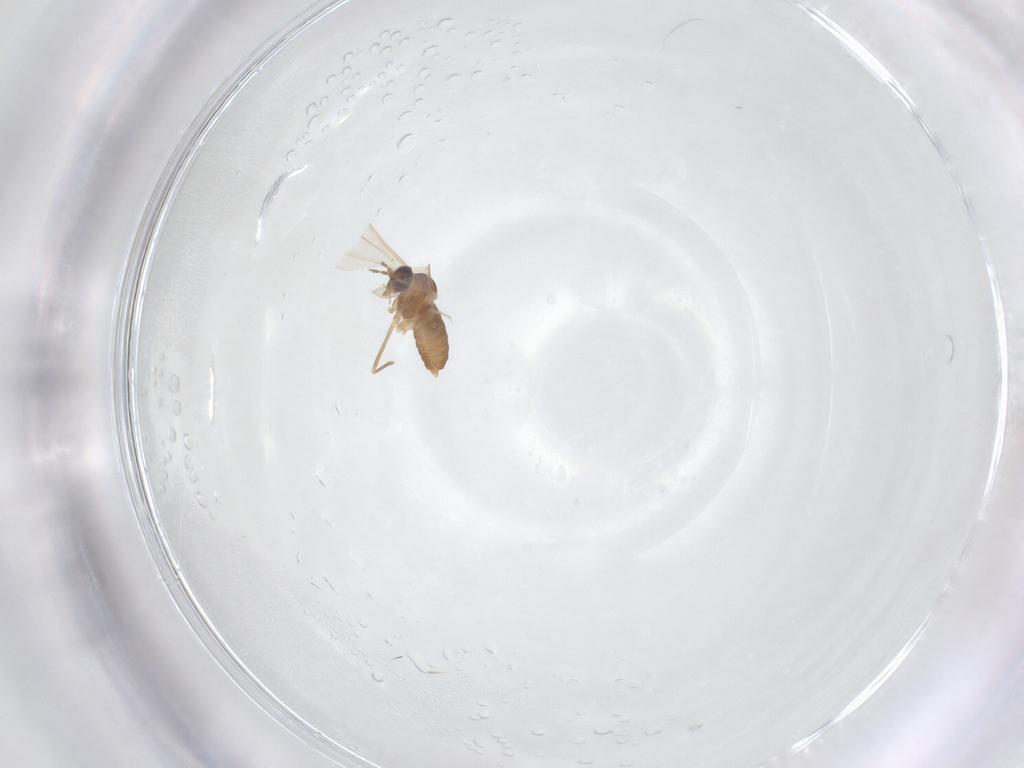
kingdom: Animalia
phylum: Arthropoda
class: Insecta
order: Diptera
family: Cecidomyiidae
